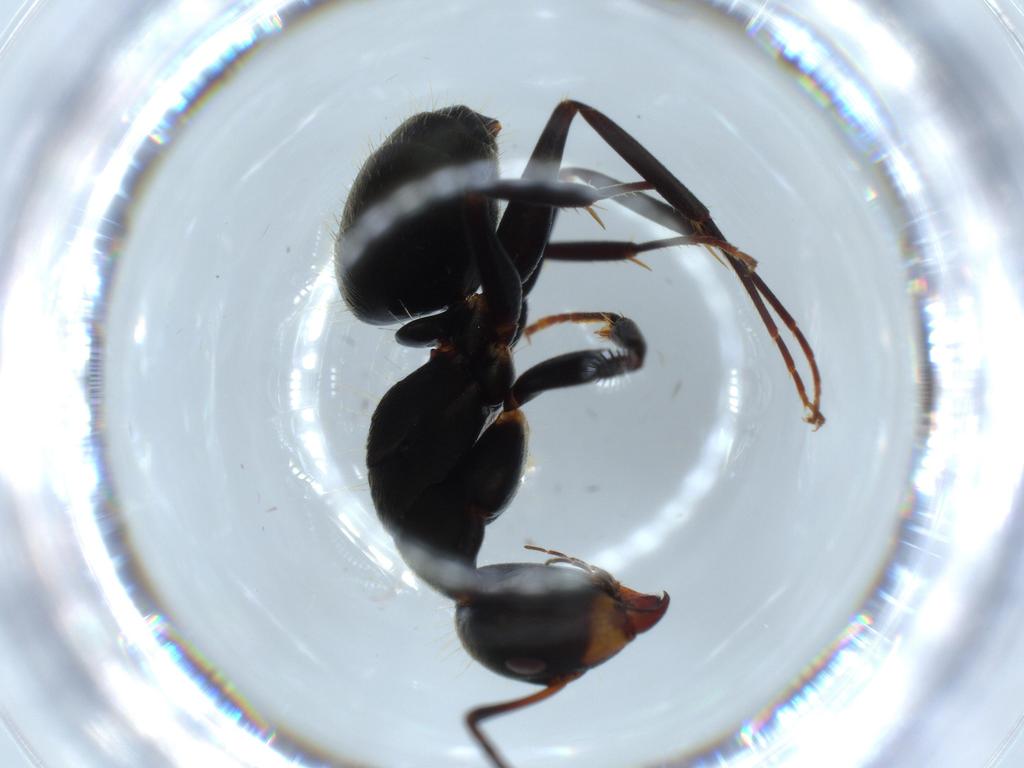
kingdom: Animalia
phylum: Arthropoda
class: Insecta
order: Hymenoptera
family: Formicidae
